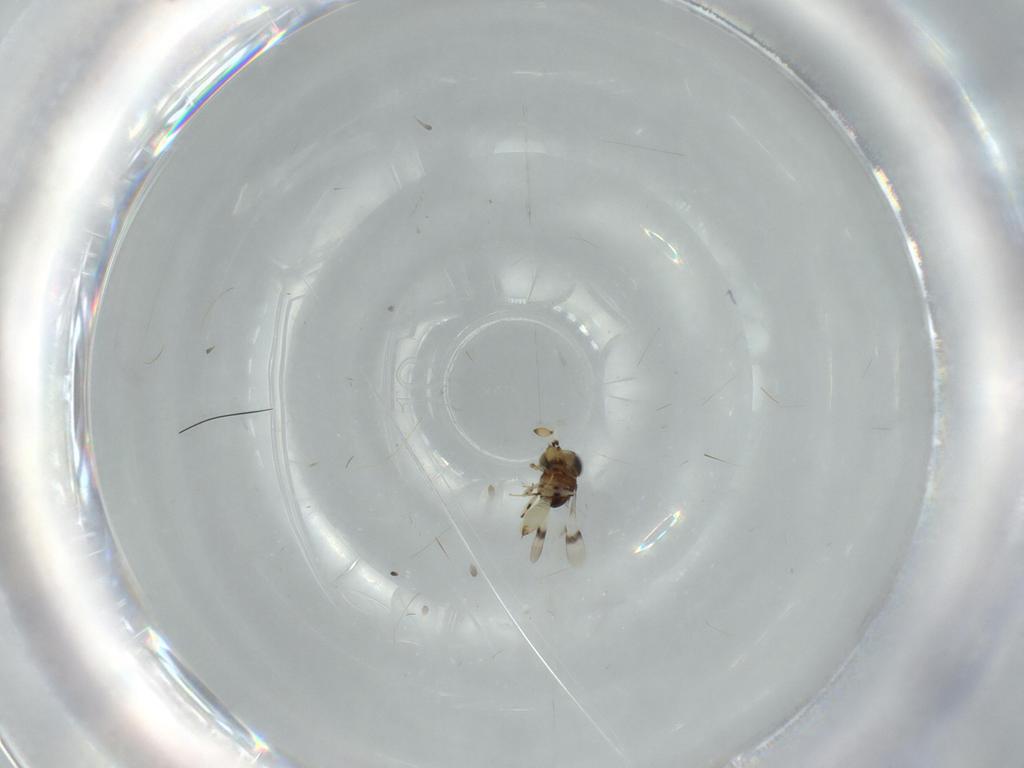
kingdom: Animalia
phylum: Arthropoda
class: Insecta
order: Hymenoptera
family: Scelionidae
